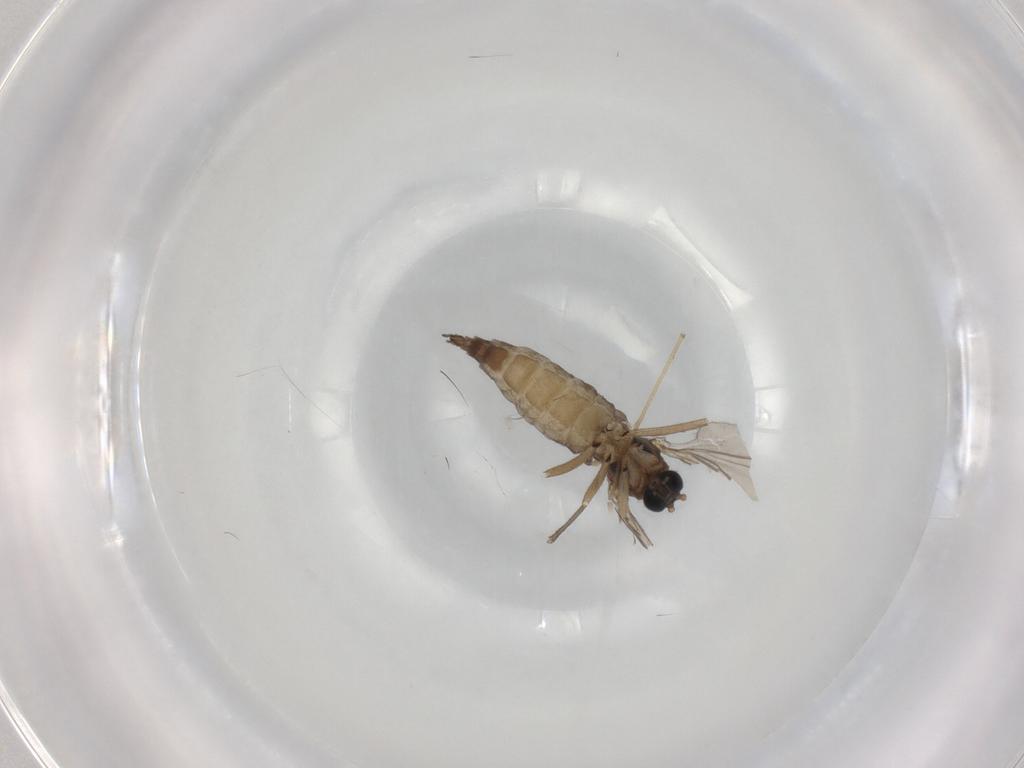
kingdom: Animalia
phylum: Arthropoda
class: Insecta
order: Diptera
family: Sciaridae
